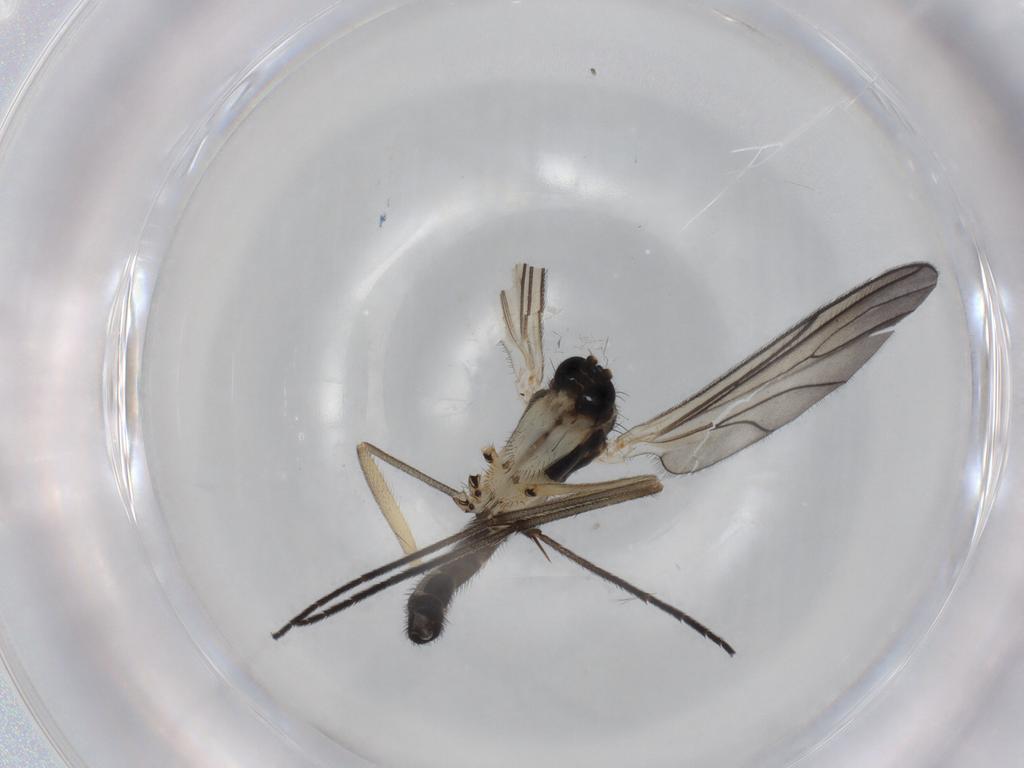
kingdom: Animalia
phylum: Arthropoda
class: Insecta
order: Diptera
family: Sciaridae
